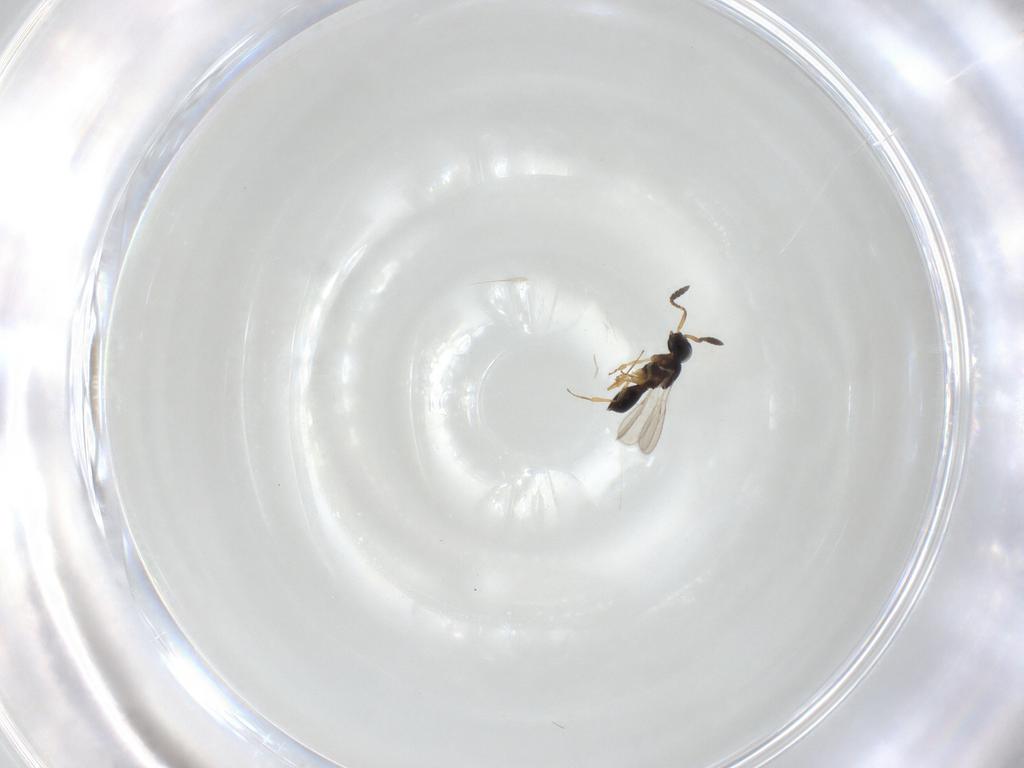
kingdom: Animalia
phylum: Arthropoda
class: Insecta
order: Hymenoptera
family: Scelionidae
